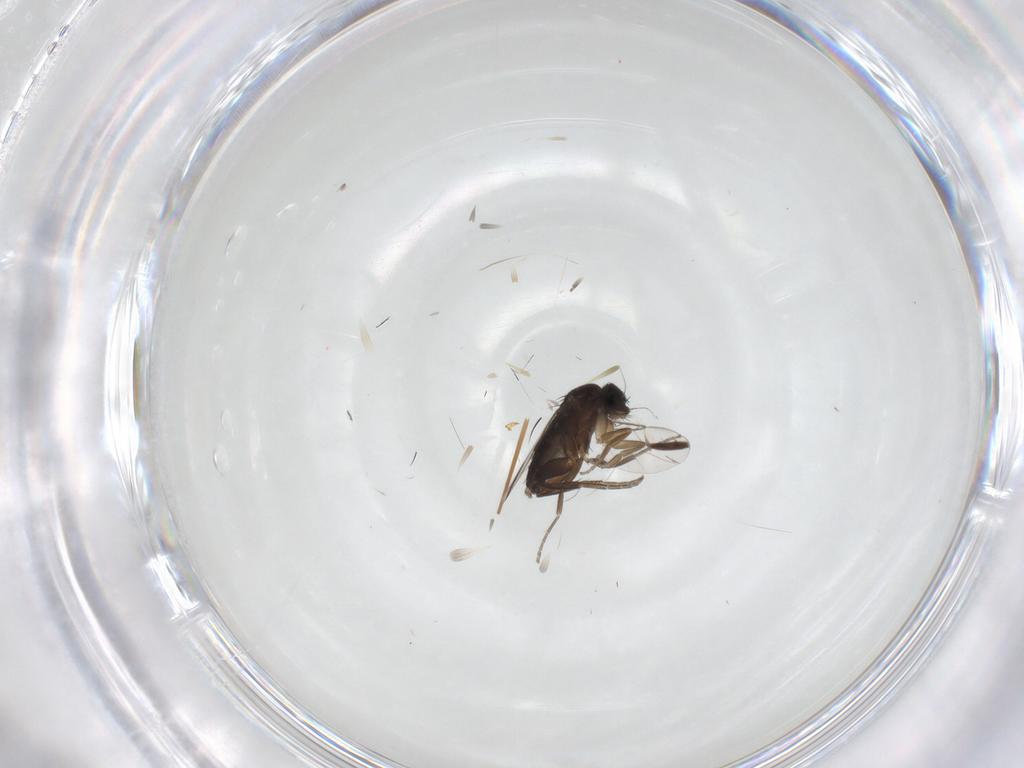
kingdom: Animalia
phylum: Arthropoda
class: Insecta
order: Diptera
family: Phoridae
